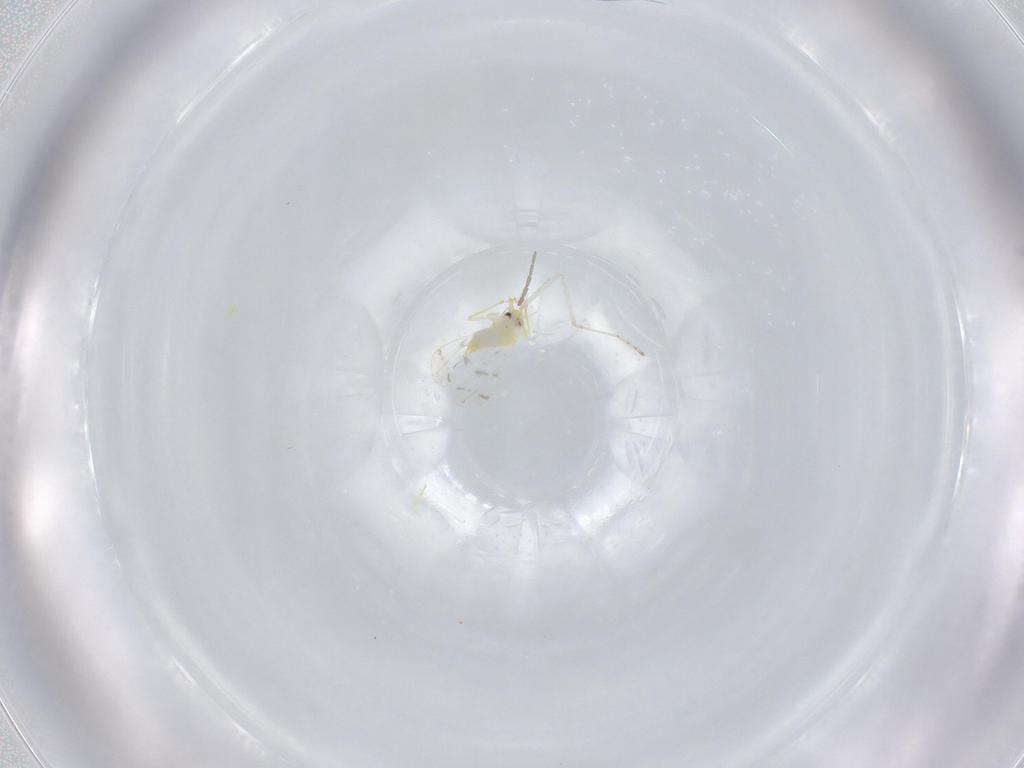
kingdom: Animalia
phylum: Arthropoda
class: Insecta
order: Hemiptera
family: Aleyrodidae
